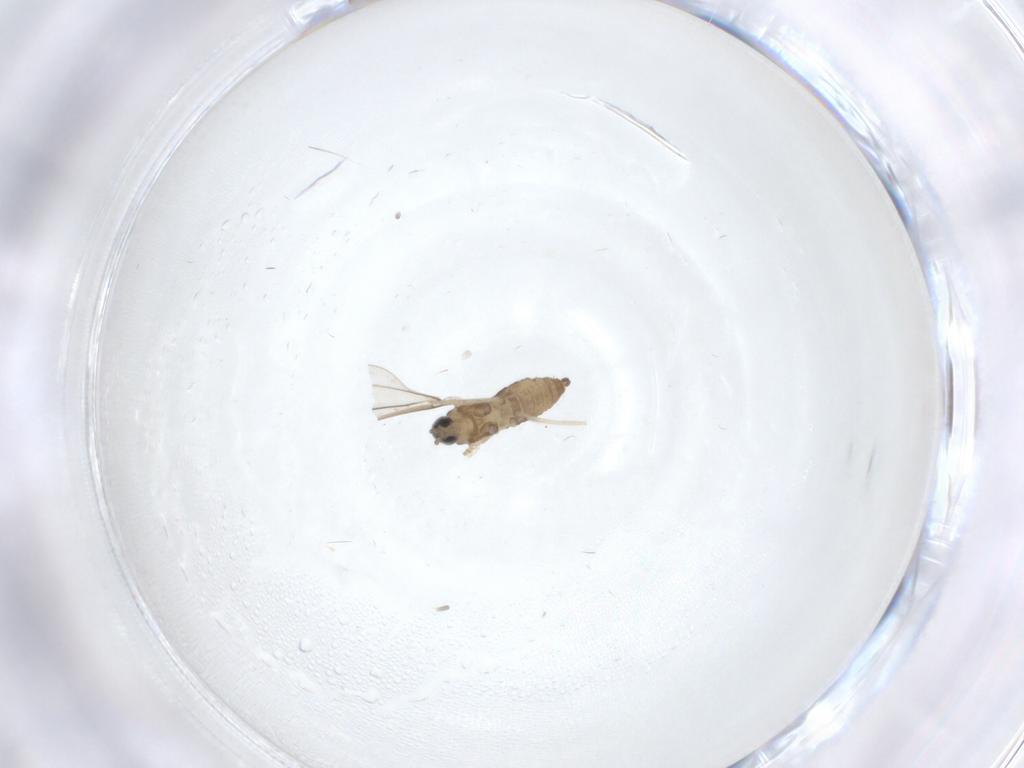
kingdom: Animalia
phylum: Arthropoda
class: Insecta
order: Diptera
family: Cecidomyiidae
